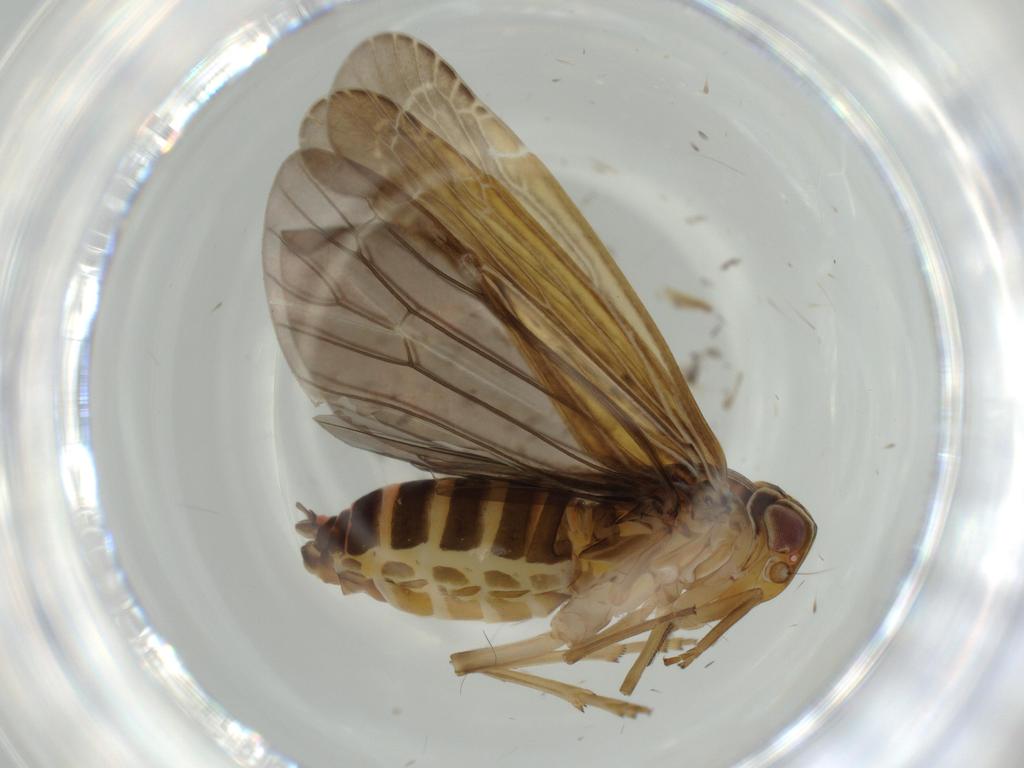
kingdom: Animalia
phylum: Arthropoda
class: Insecta
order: Hemiptera
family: Achilidae
